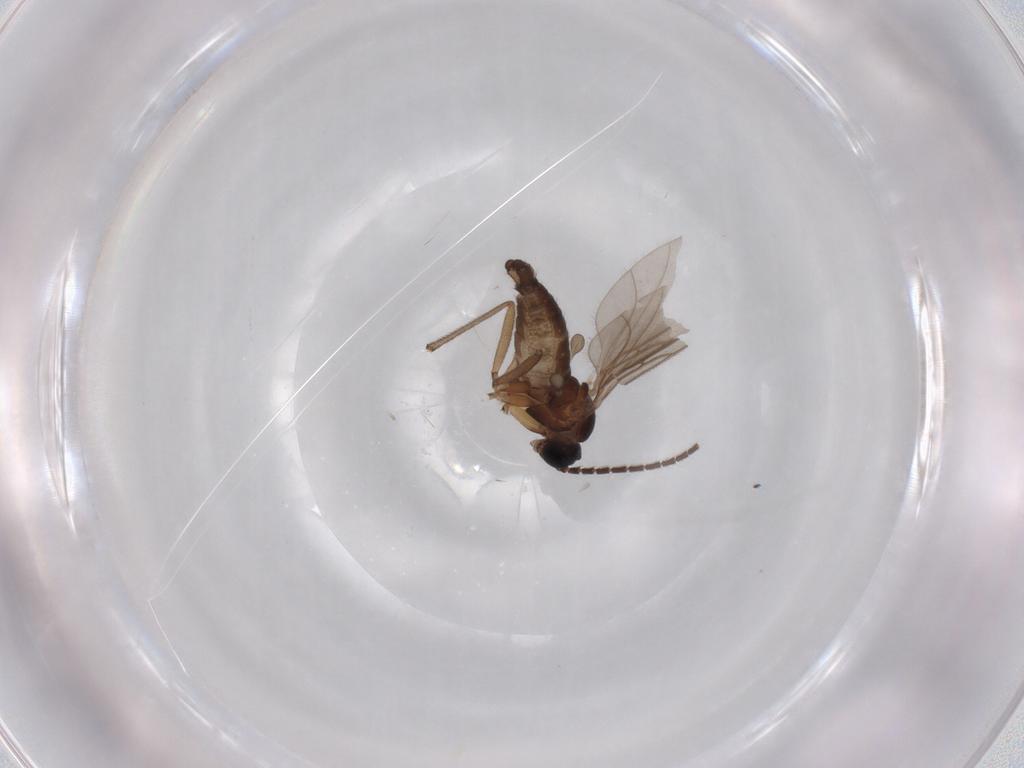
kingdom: Animalia
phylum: Arthropoda
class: Insecta
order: Diptera
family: Sciaridae
